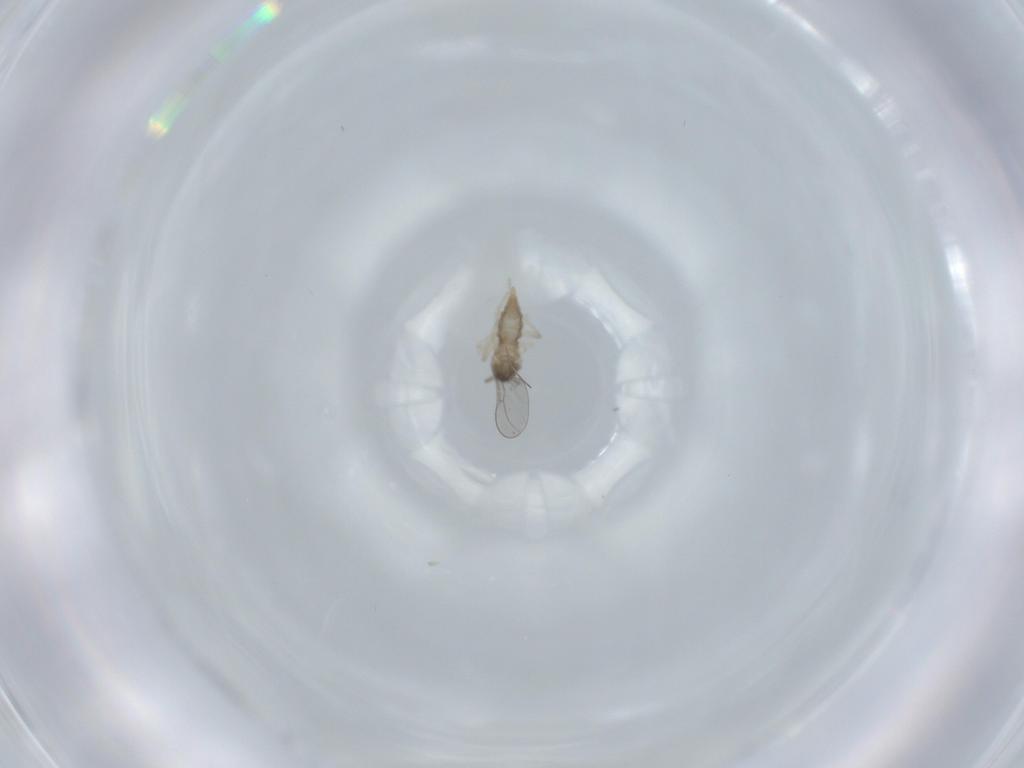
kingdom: Animalia
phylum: Arthropoda
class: Insecta
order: Diptera
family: Cecidomyiidae
